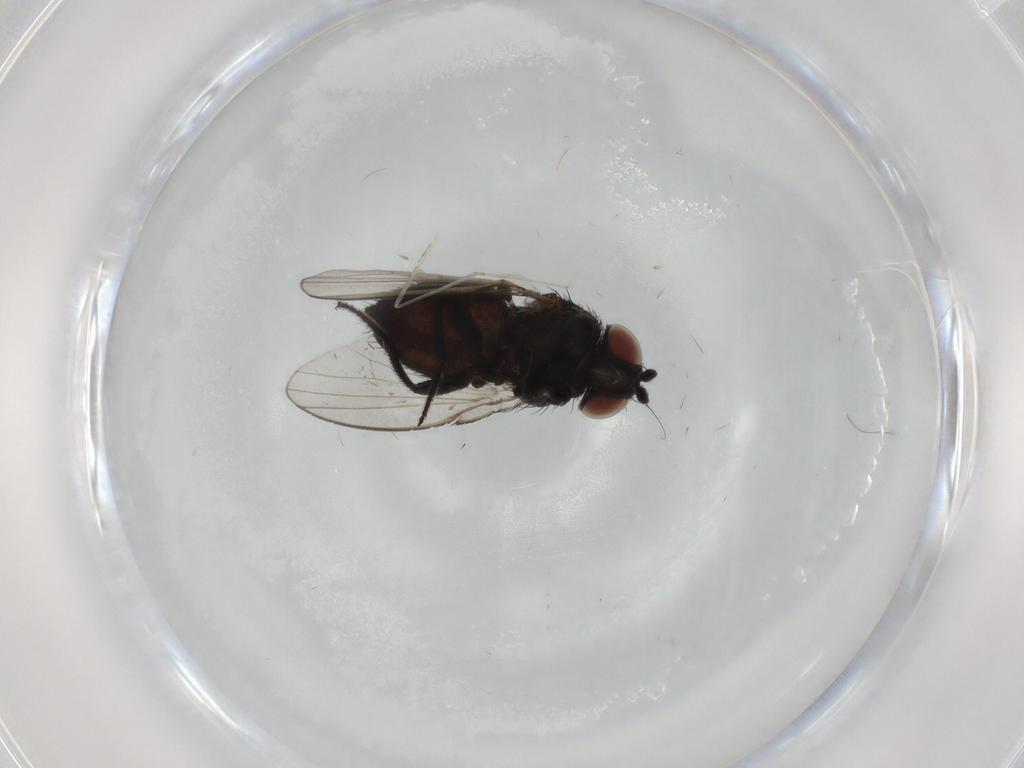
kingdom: Animalia
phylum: Arthropoda
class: Insecta
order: Diptera
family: Milichiidae
